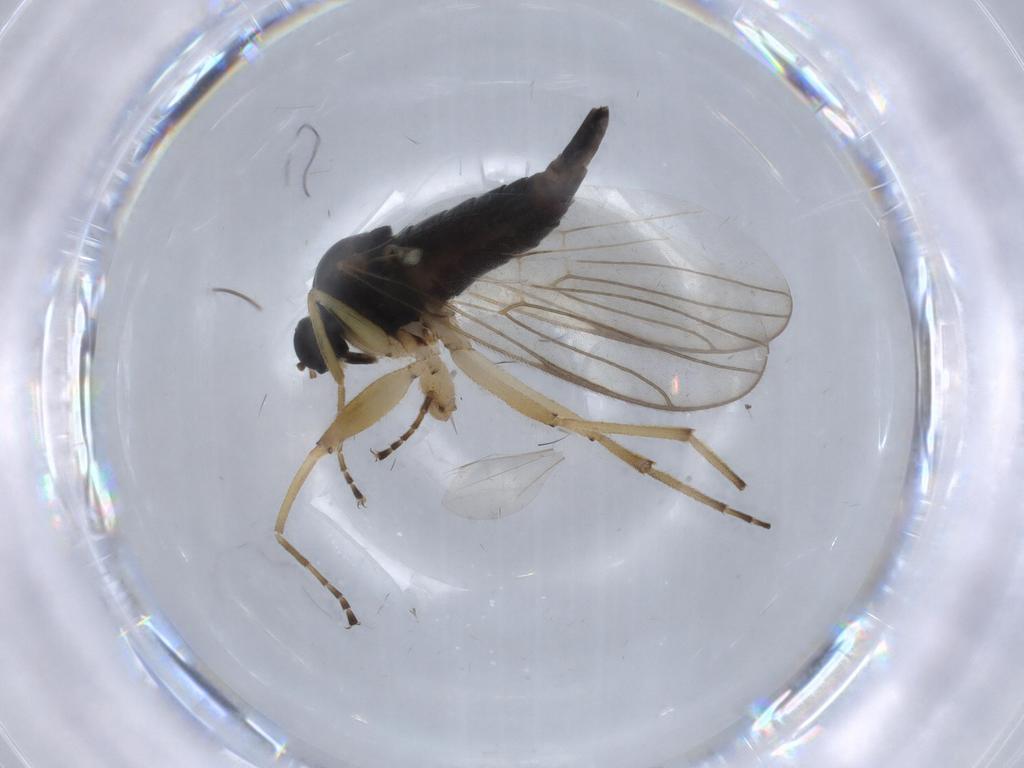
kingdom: Animalia
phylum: Arthropoda
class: Insecta
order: Diptera
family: Chironomidae
